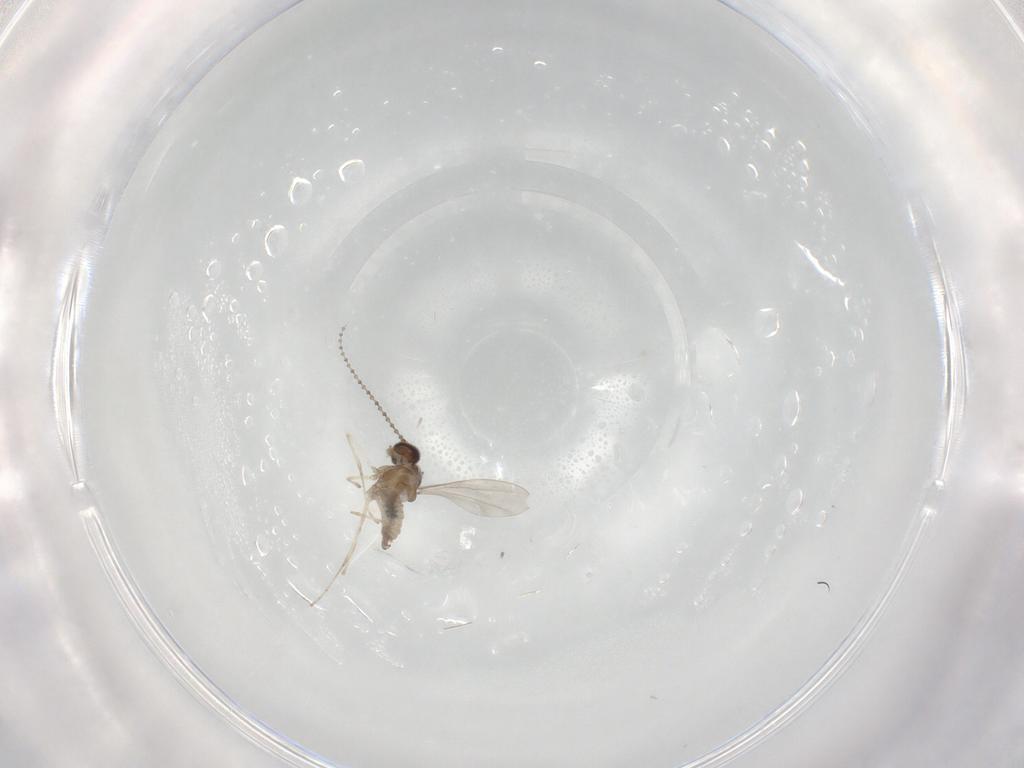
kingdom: Animalia
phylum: Arthropoda
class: Insecta
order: Diptera
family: Cecidomyiidae
